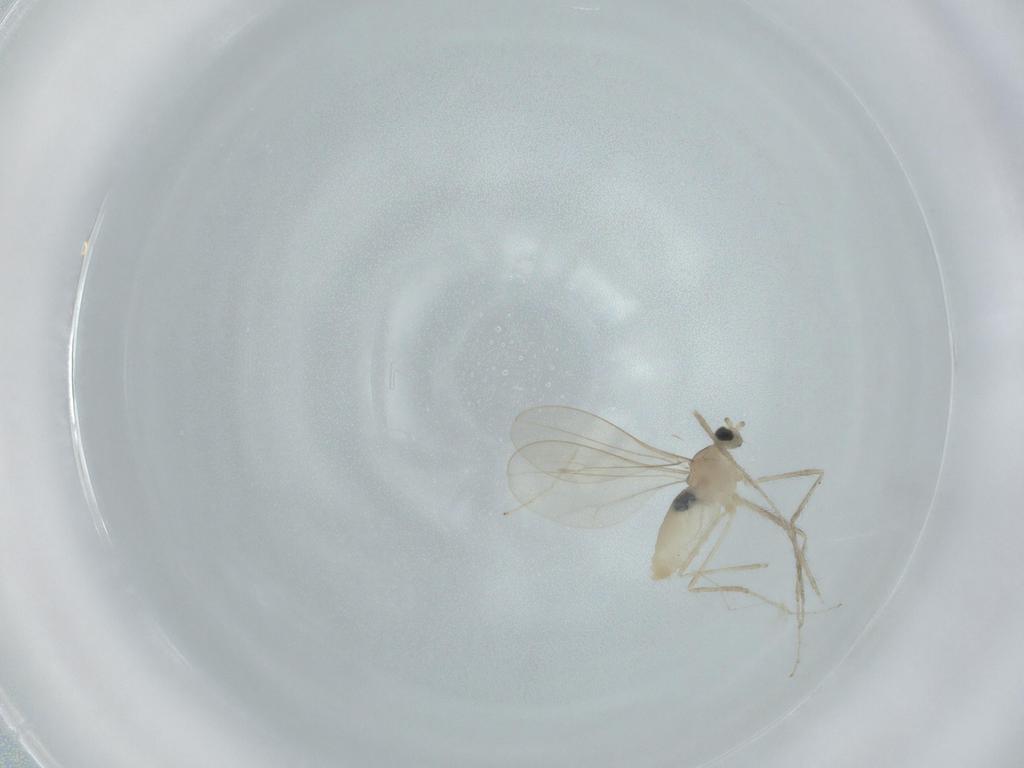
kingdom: Animalia
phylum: Arthropoda
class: Insecta
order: Diptera
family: Cecidomyiidae
